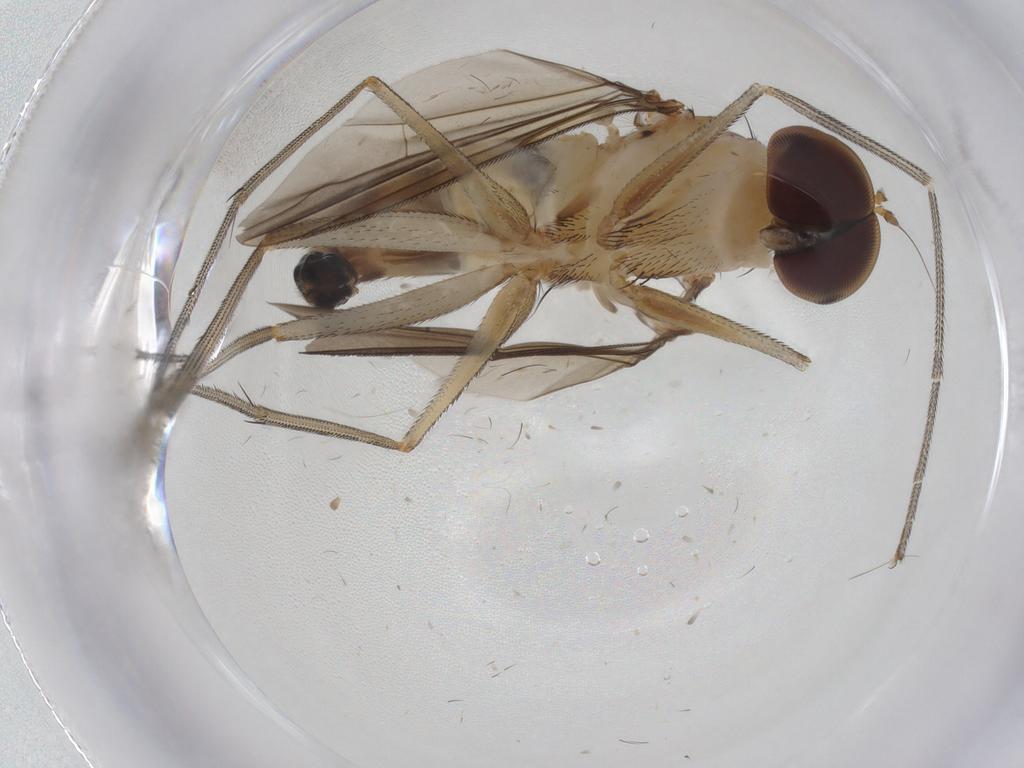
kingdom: Animalia
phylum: Arthropoda
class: Insecta
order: Diptera
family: Dolichopodidae
